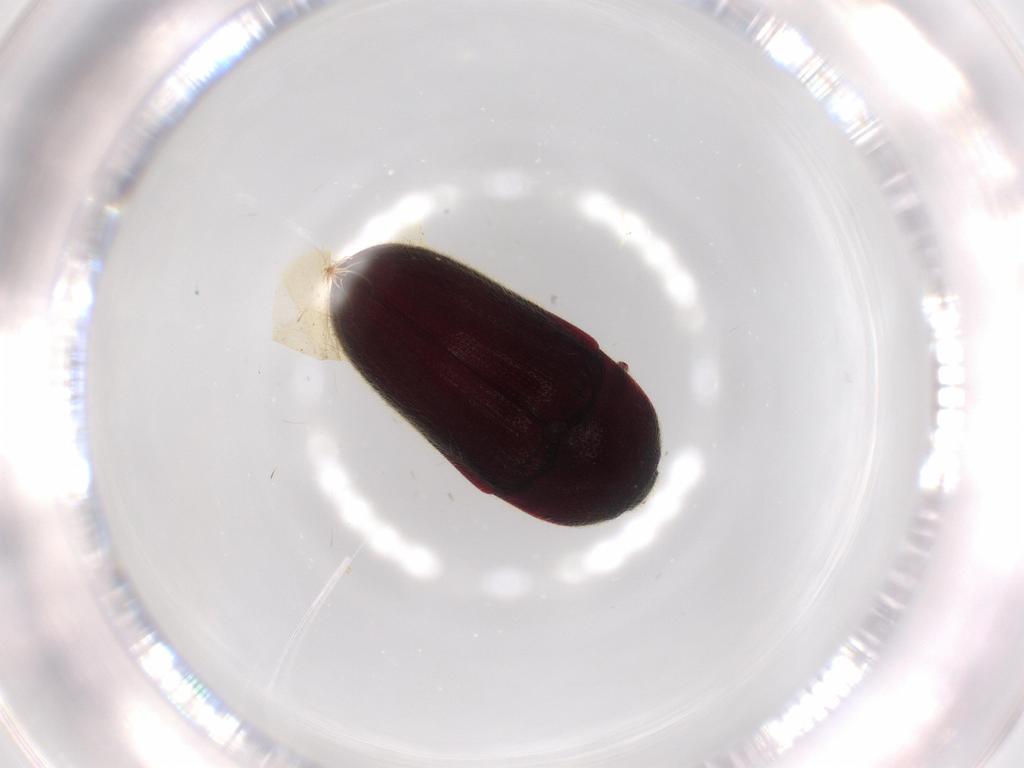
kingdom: Animalia
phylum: Arthropoda
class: Insecta
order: Coleoptera
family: Throscidae
